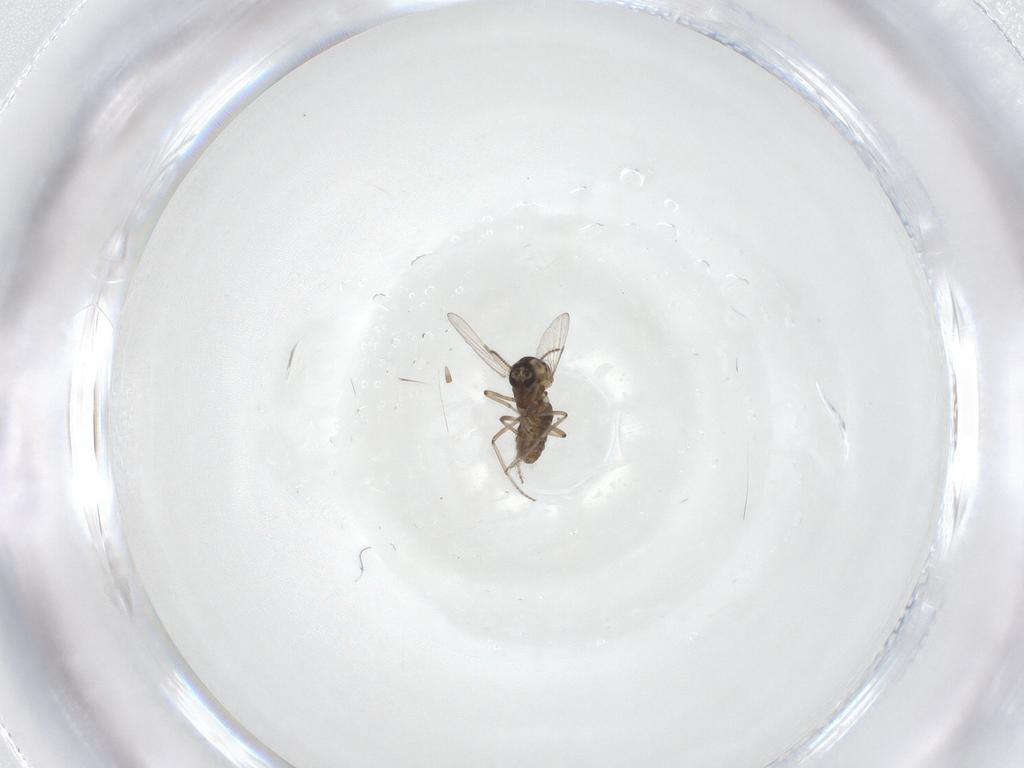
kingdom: Animalia
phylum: Arthropoda
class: Insecta
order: Diptera
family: Ceratopogonidae
